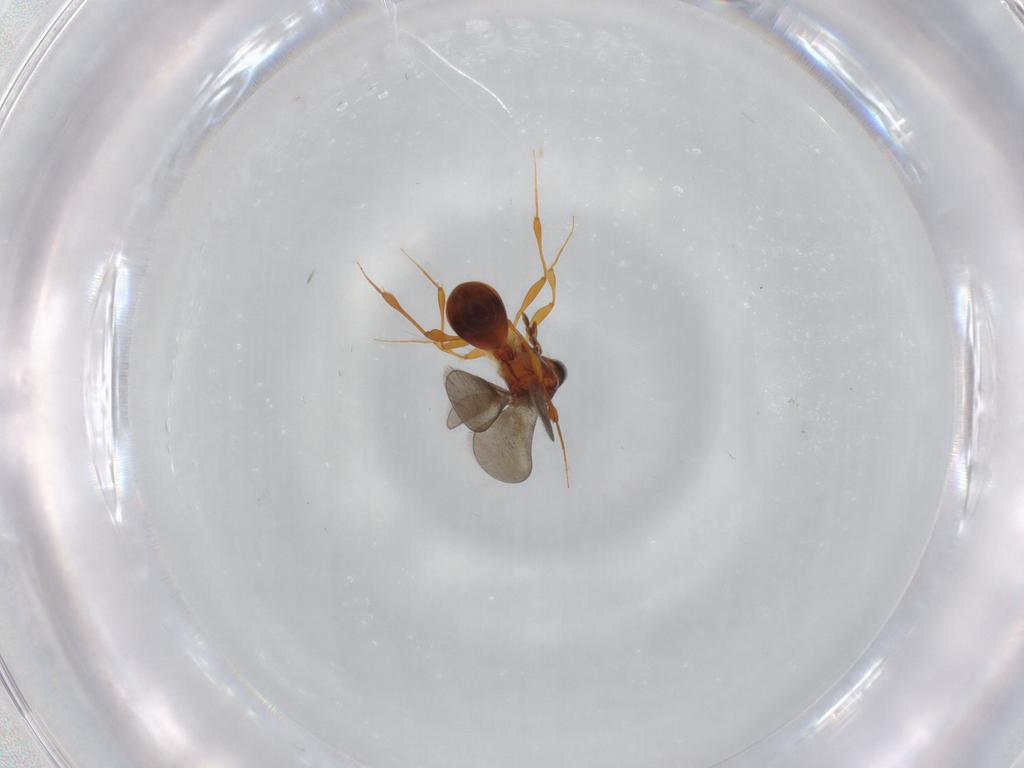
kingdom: Animalia
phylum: Arthropoda
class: Insecta
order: Hymenoptera
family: Platygastridae
